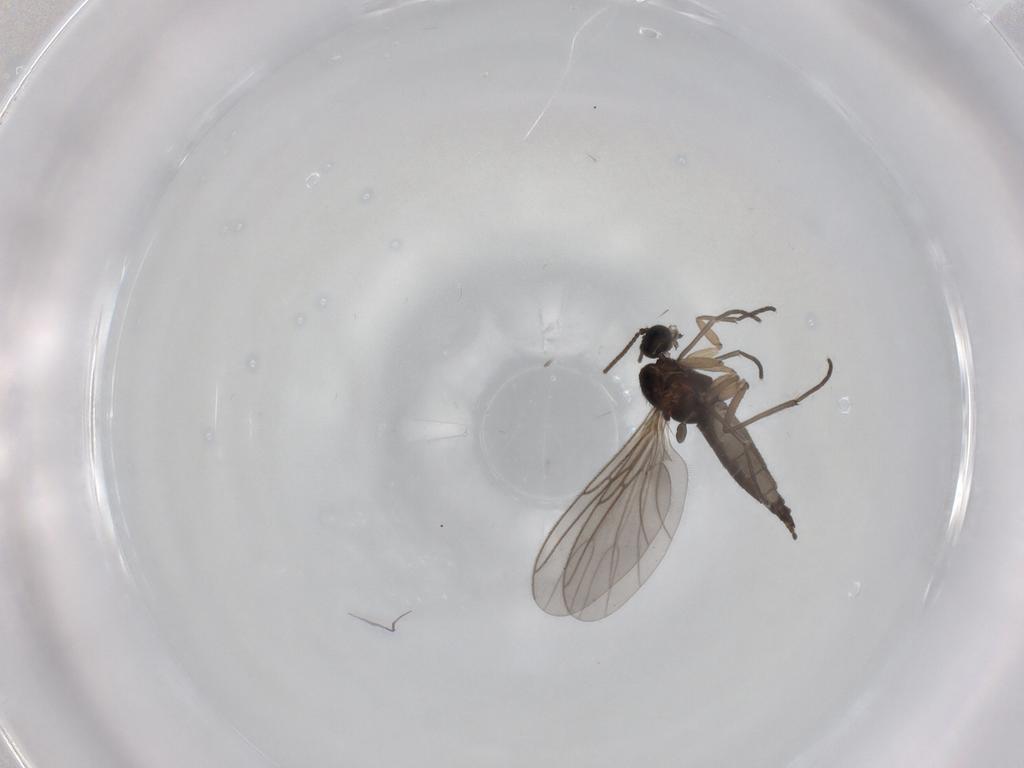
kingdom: Animalia
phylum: Arthropoda
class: Insecta
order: Diptera
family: Sciaridae
